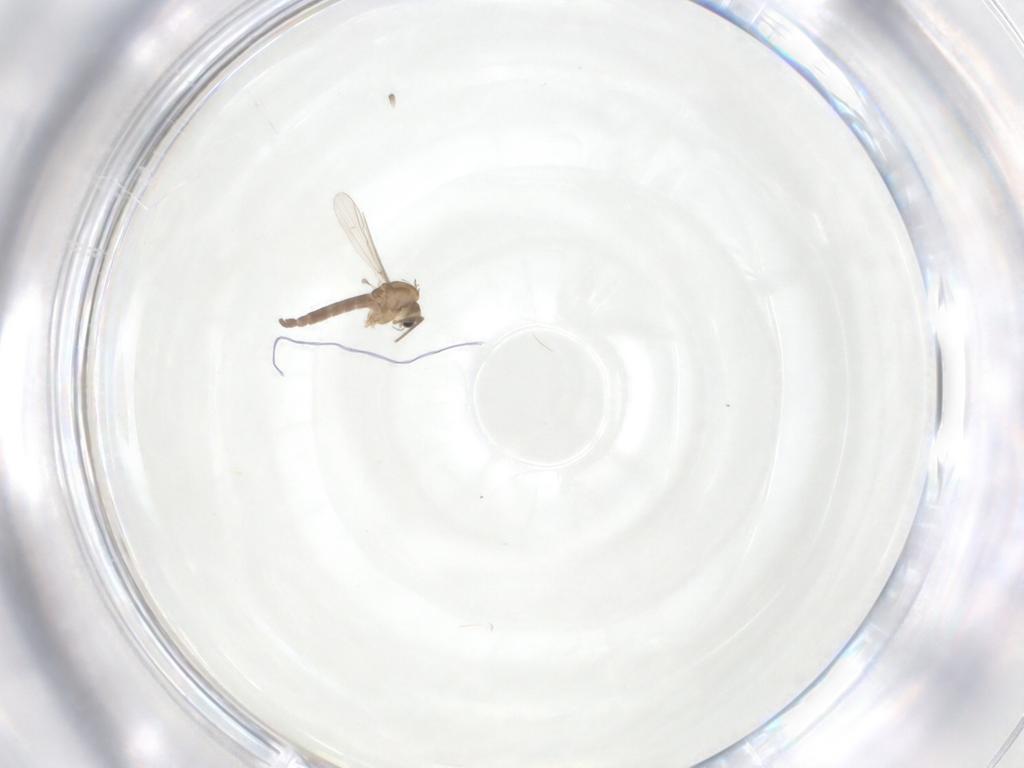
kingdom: Animalia
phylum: Arthropoda
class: Insecta
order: Diptera
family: Chironomidae
